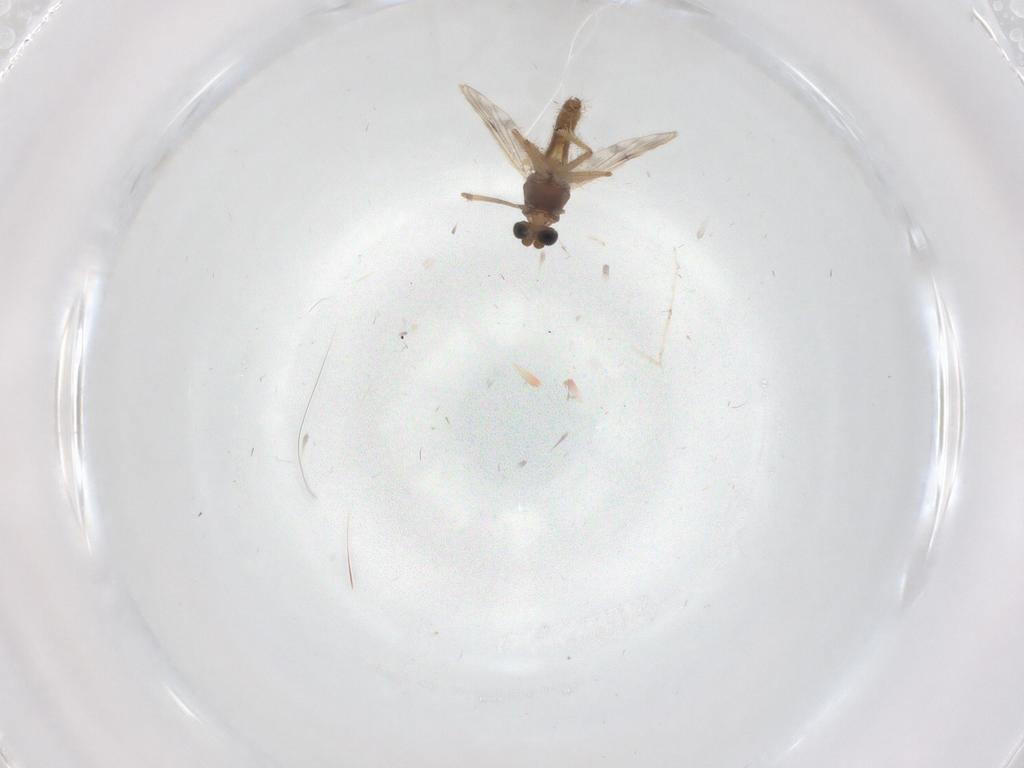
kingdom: Animalia
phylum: Arthropoda
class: Insecta
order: Diptera
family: Chironomidae
